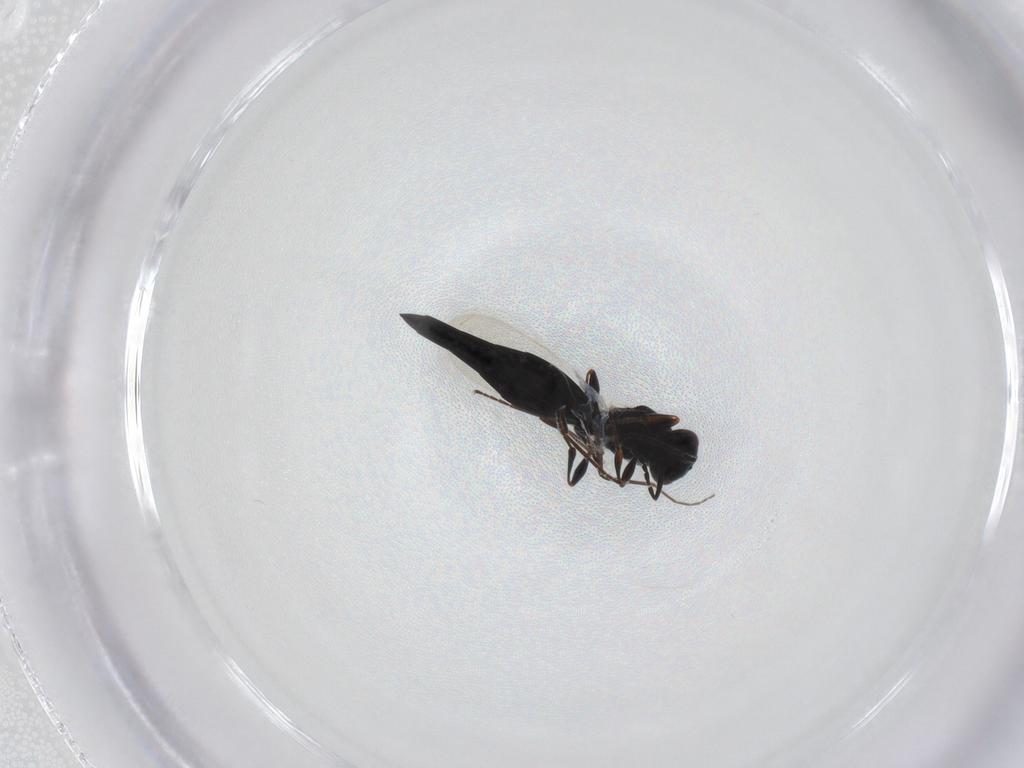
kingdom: Animalia
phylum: Arthropoda
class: Insecta
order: Hymenoptera
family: Platygastridae
